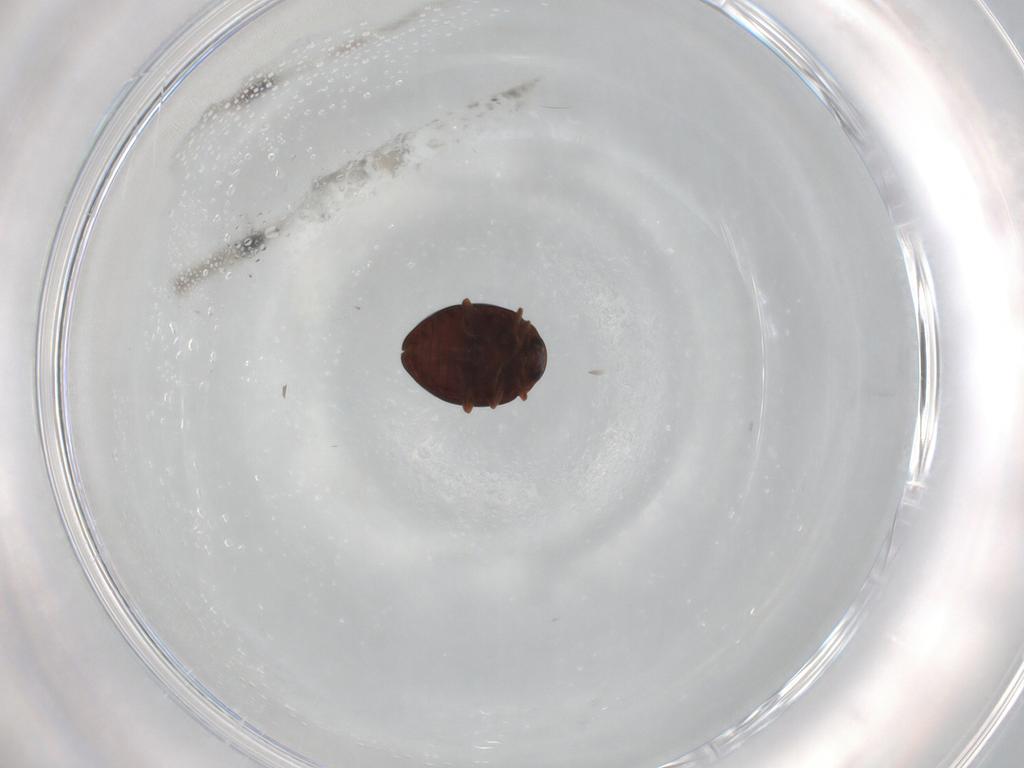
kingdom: Animalia
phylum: Arthropoda
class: Insecta
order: Coleoptera
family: Coccinellidae
